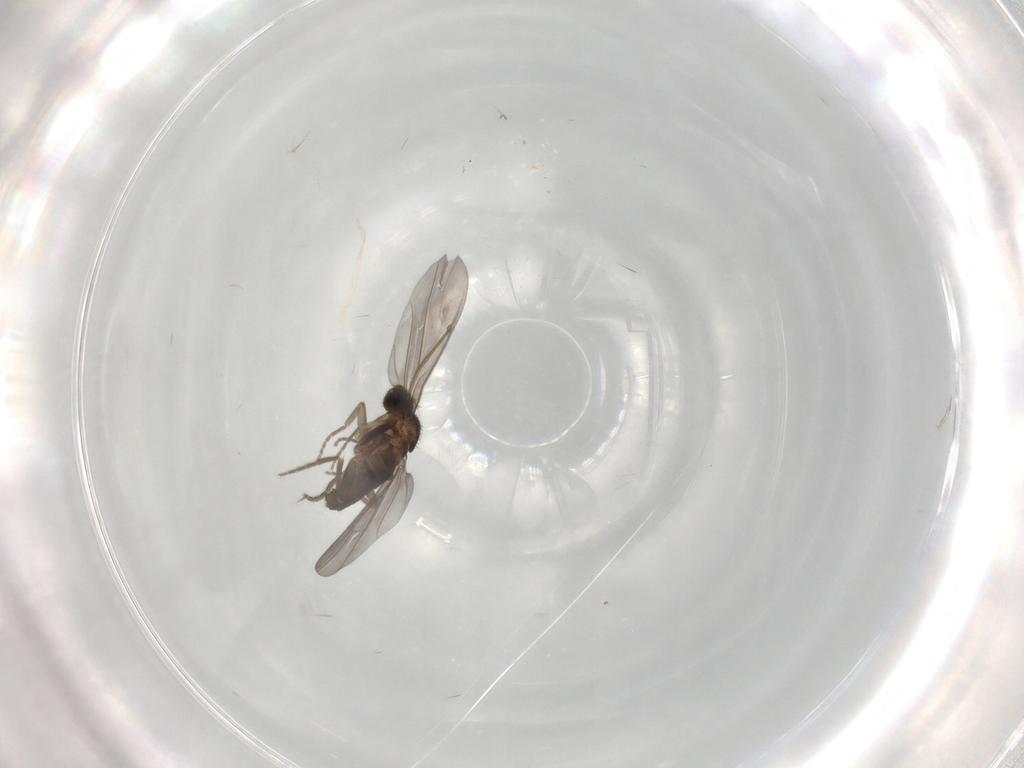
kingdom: Animalia
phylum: Arthropoda
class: Insecta
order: Diptera
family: Phoridae
